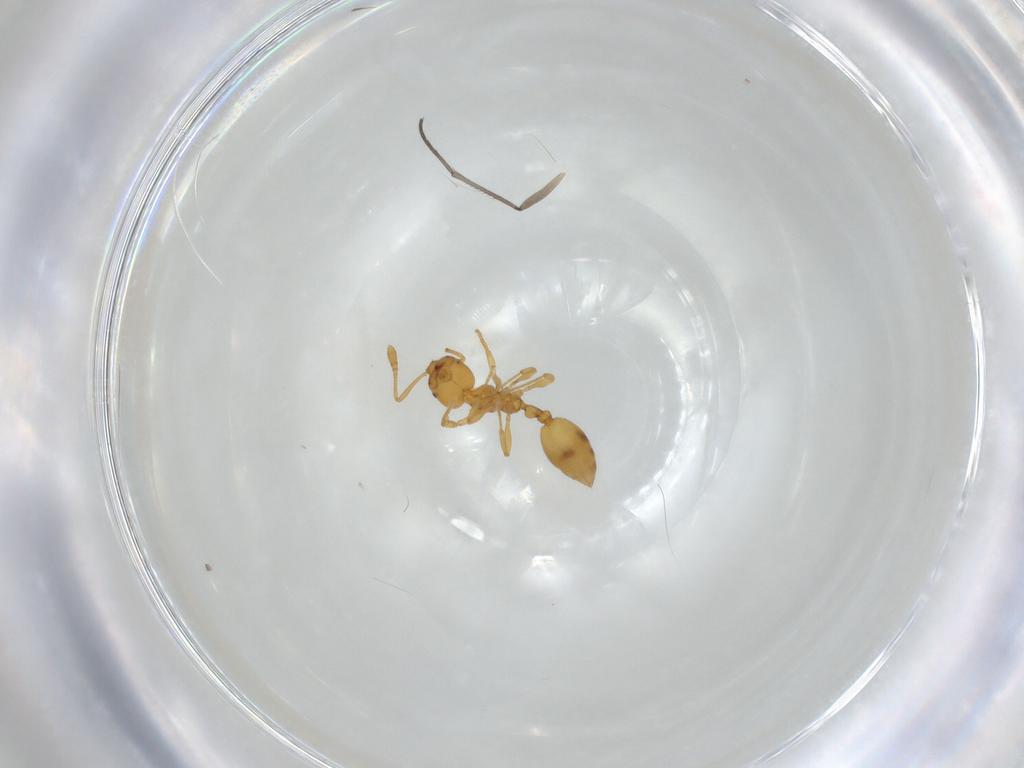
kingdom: Animalia
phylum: Arthropoda
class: Insecta
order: Hymenoptera
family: Formicidae
